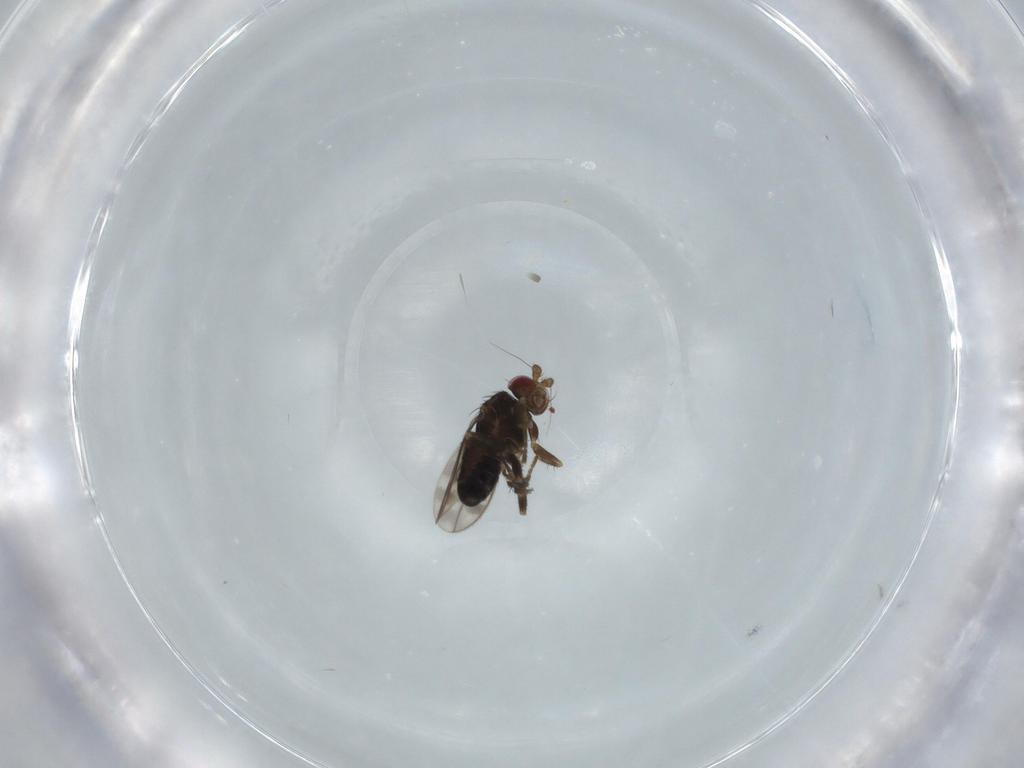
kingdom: Animalia
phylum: Arthropoda
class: Insecta
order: Diptera
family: Sphaeroceridae
